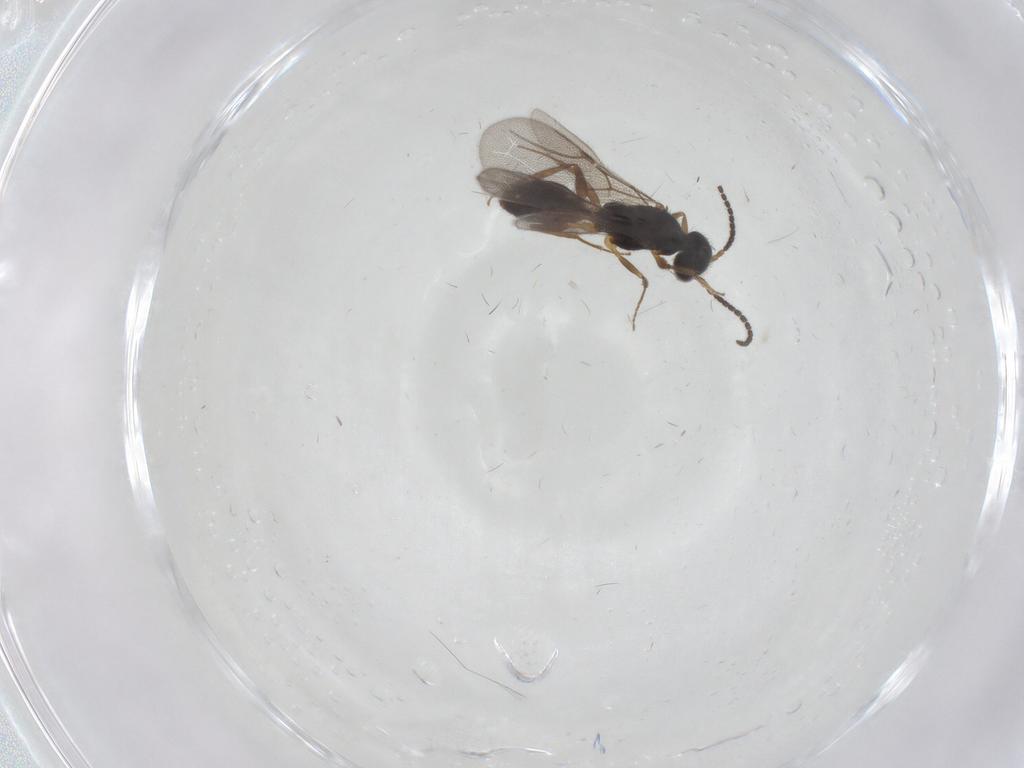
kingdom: Animalia
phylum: Arthropoda
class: Insecta
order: Hymenoptera
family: Bethylidae
